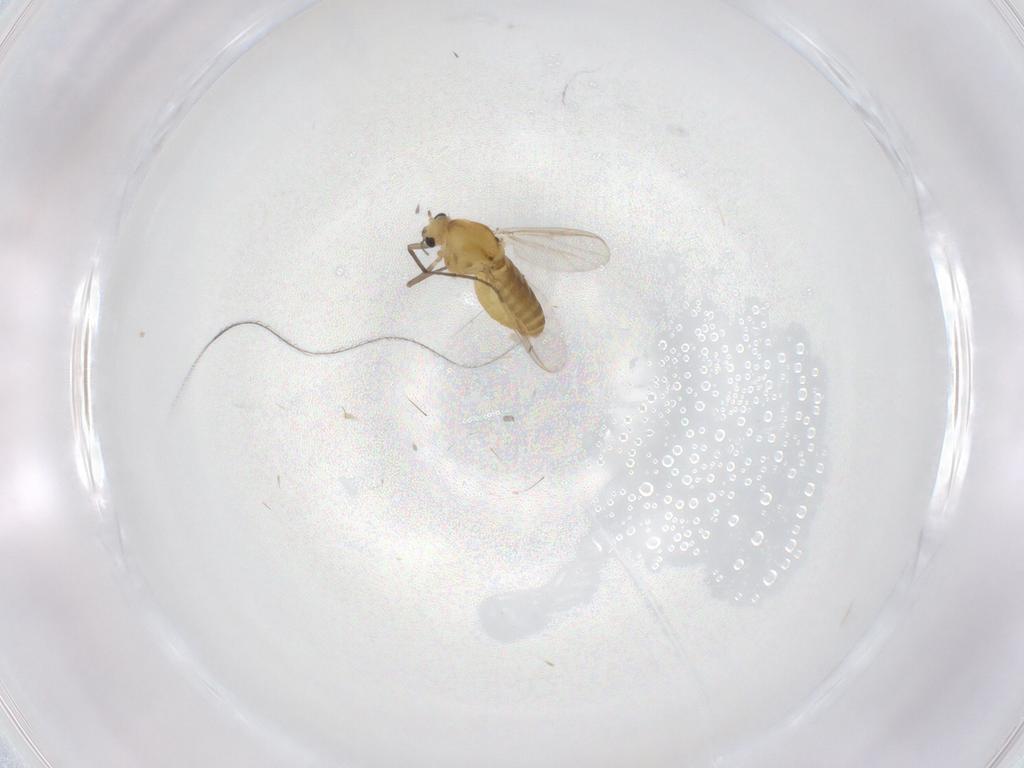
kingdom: Animalia
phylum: Arthropoda
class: Insecta
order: Diptera
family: Chironomidae
